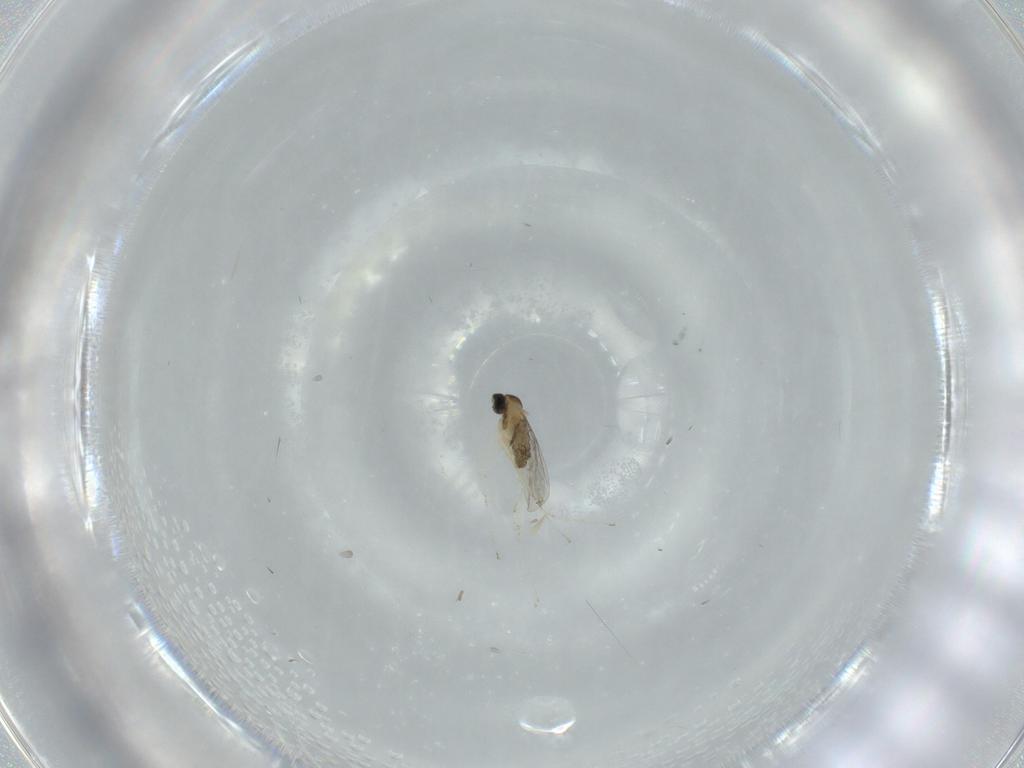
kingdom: Animalia
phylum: Arthropoda
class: Insecta
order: Diptera
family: Cecidomyiidae
